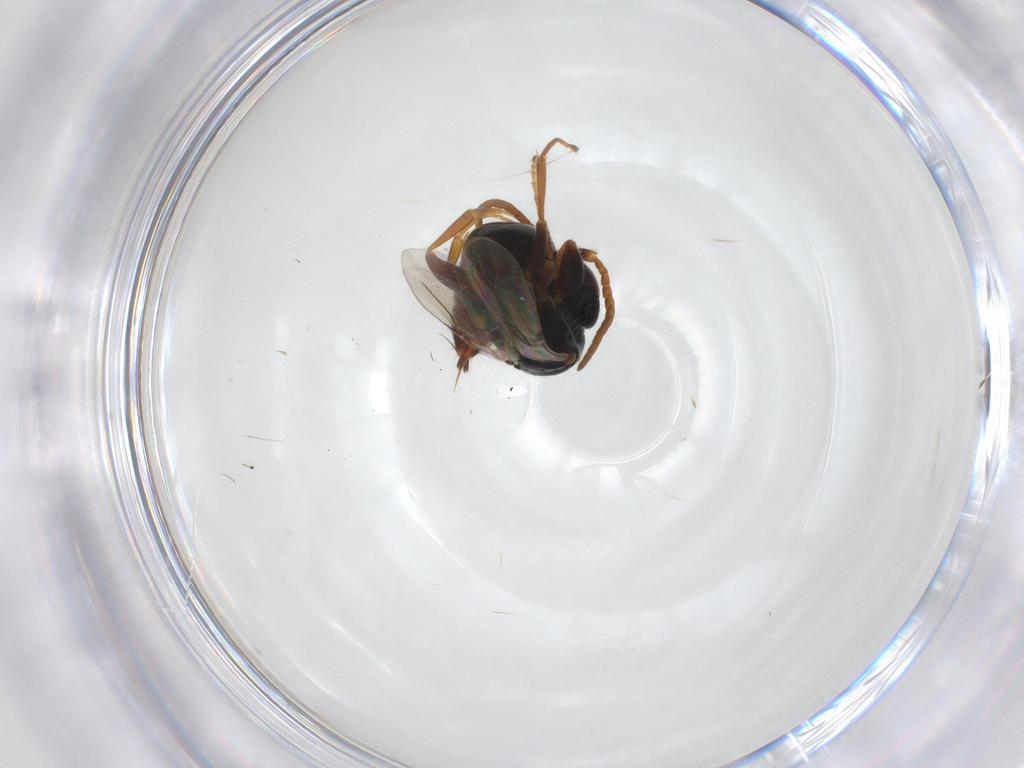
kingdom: Animalia
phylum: Arthropoda
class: Insecta
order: Hymenoptera
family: Bethylidae
